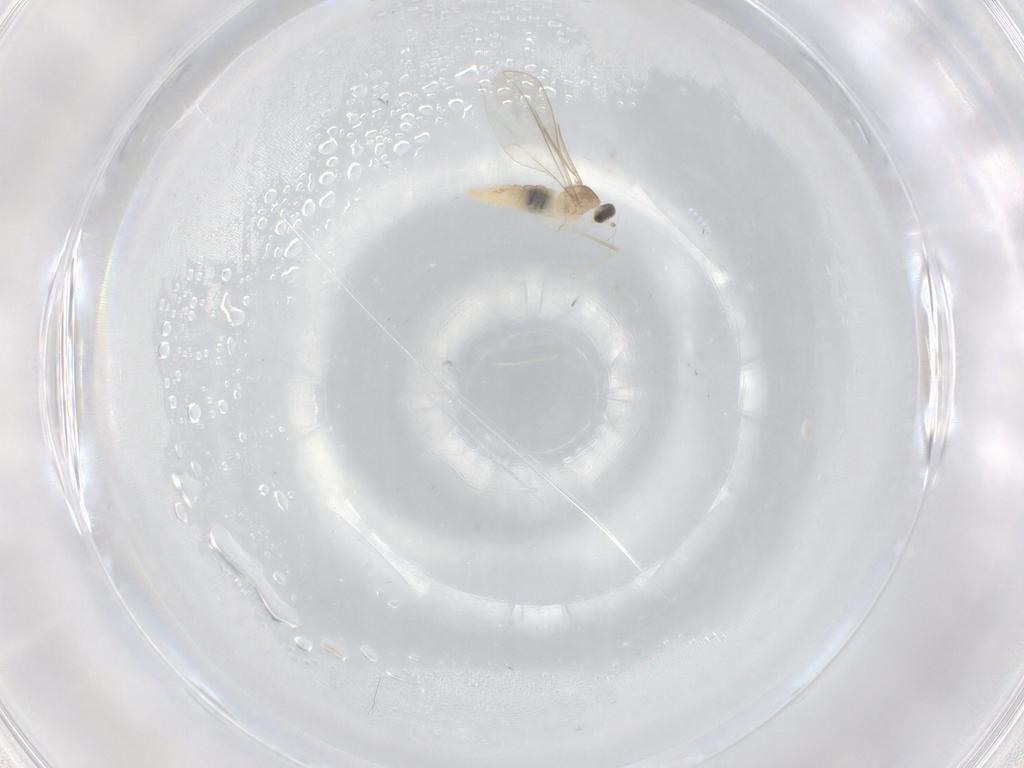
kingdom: Animalia
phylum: Arthropoda
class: Insecta
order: Diptera
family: Cecidomyiidae
